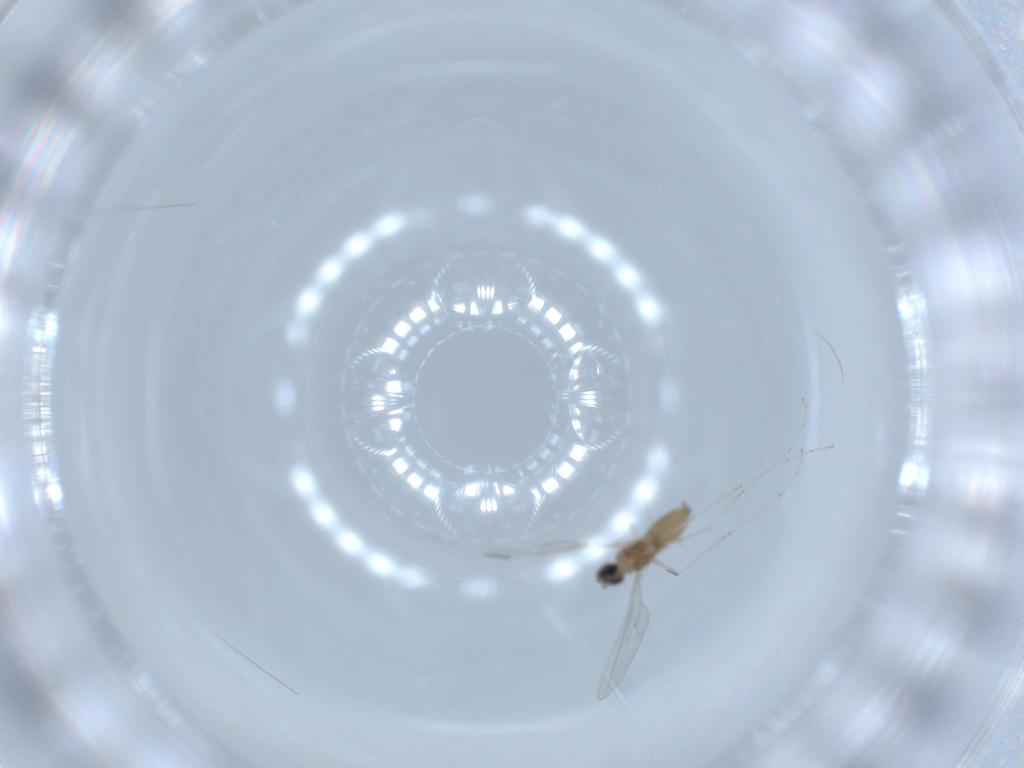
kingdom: Animalia
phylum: Arthropoda
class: Insecta
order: Diptera
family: Cecidomyiidae
